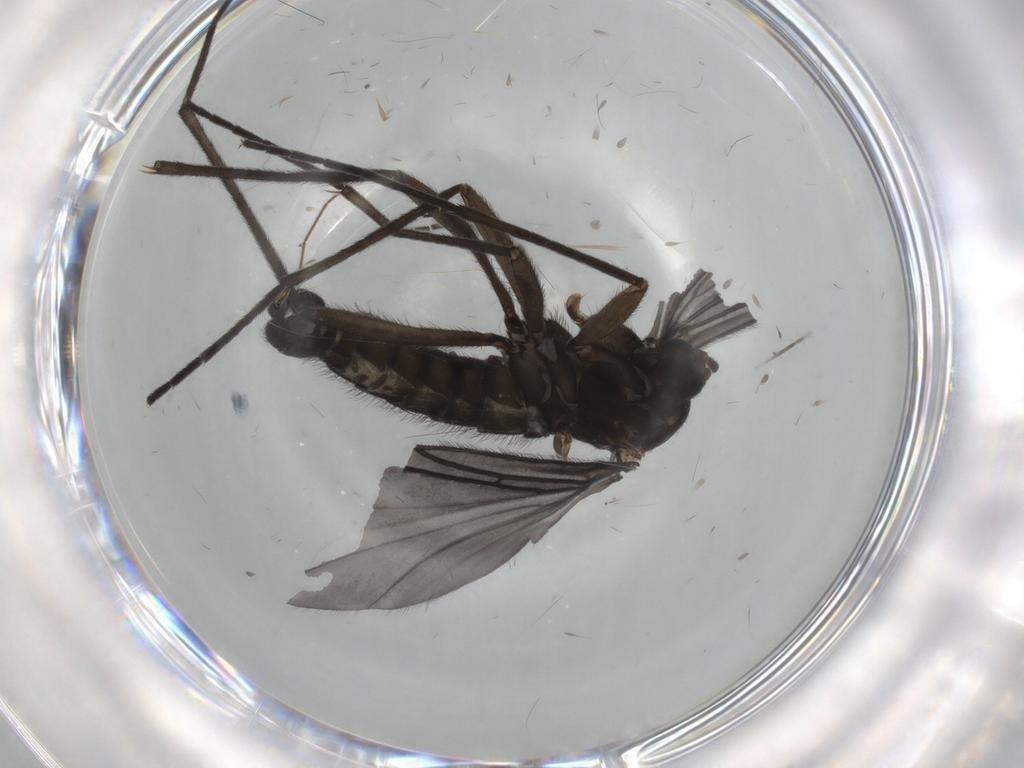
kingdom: Animalia
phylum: Arthropoda
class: Insecta
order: Diptera
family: Sciaridae
